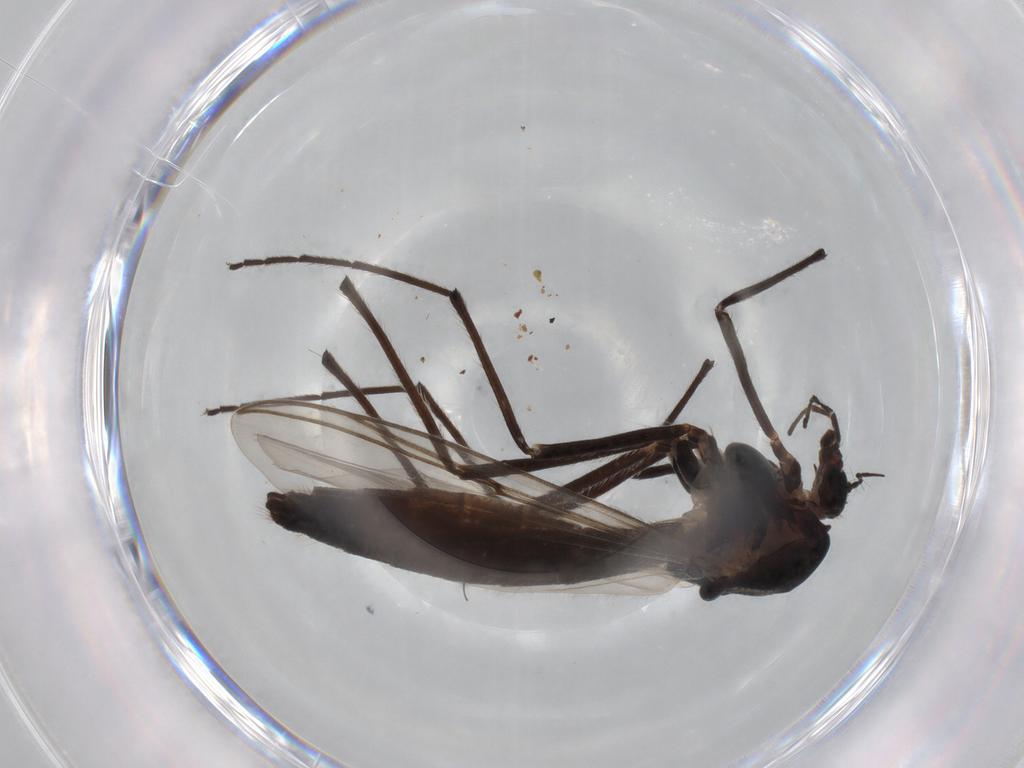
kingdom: Animalia
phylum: Arthropoda
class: Insecta
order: Diptera
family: Chironomidae
